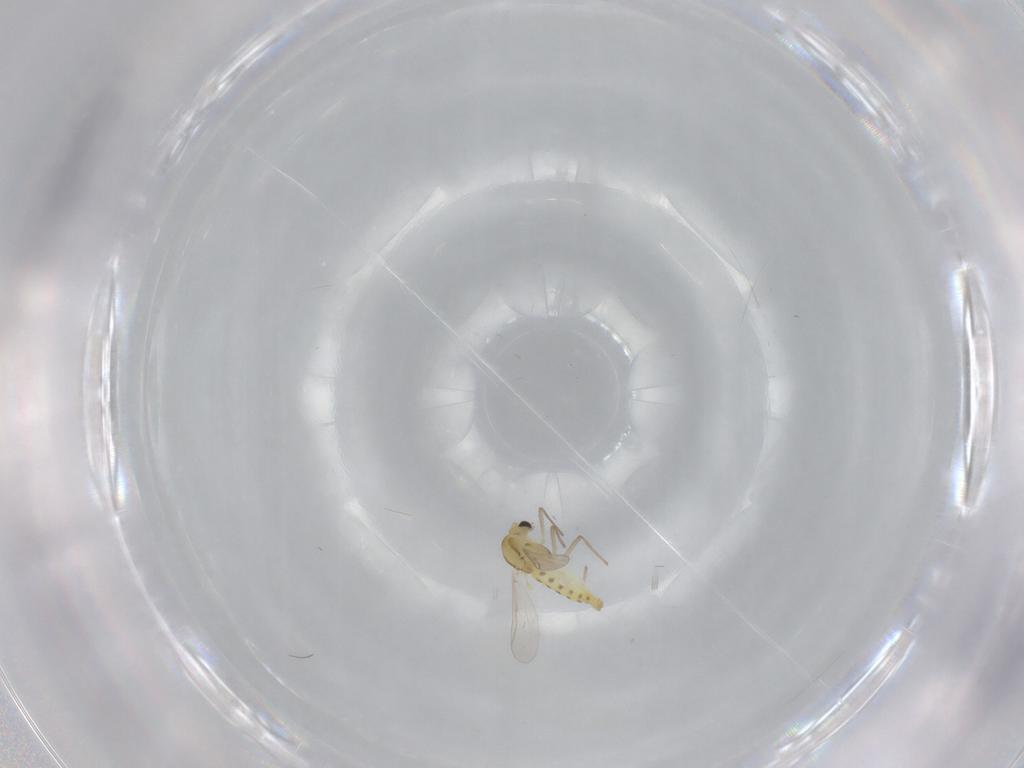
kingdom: Animalia
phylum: Arthropoda
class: Insecta
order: Diptera
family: Chironomidae
